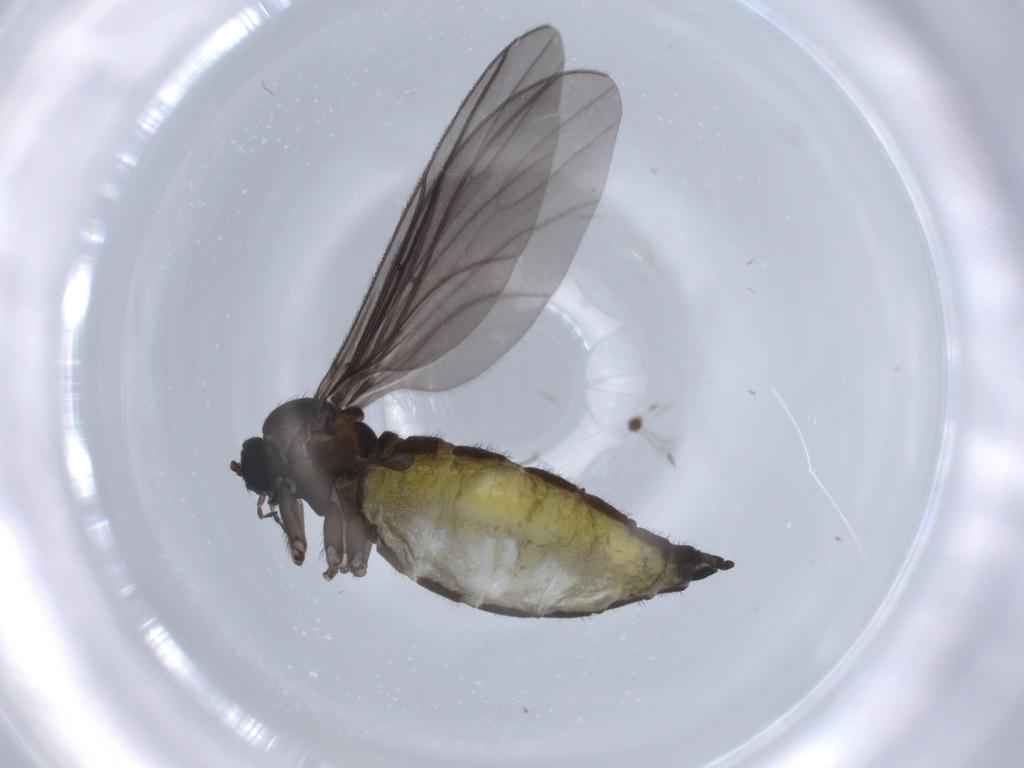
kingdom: Animalia
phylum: Arthropoda
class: Insecta
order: Diptera
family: Sciaridae
